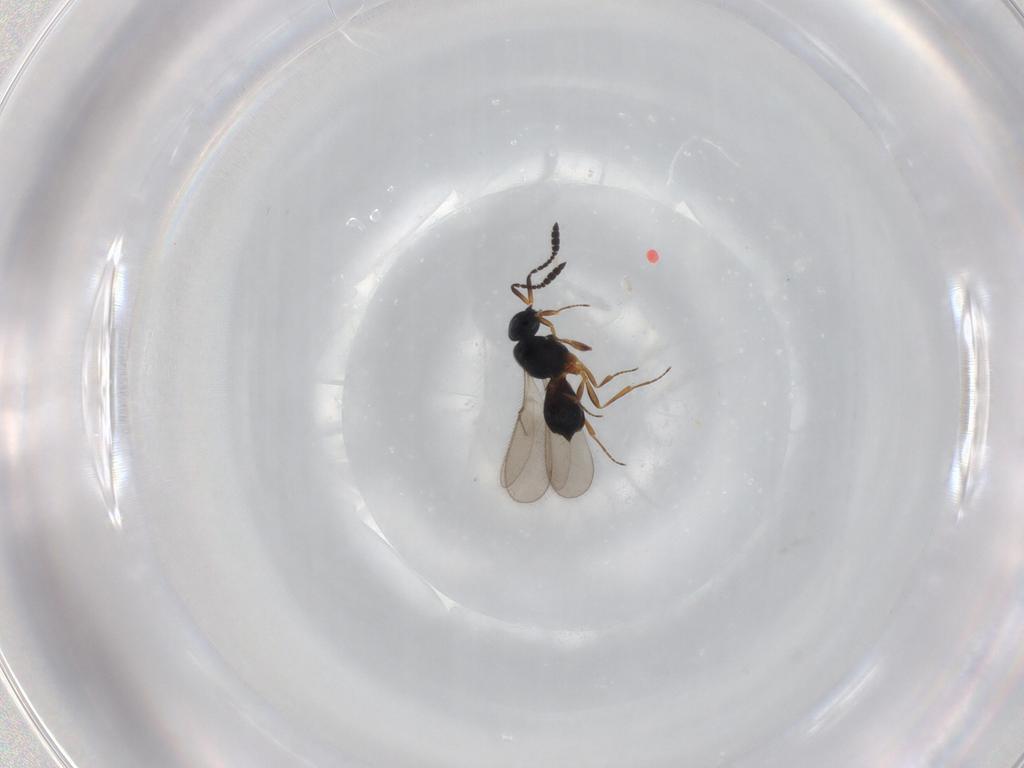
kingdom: Animalia
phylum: Arthropoda
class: Insecta
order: Hymenoptera
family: Scelionidae
